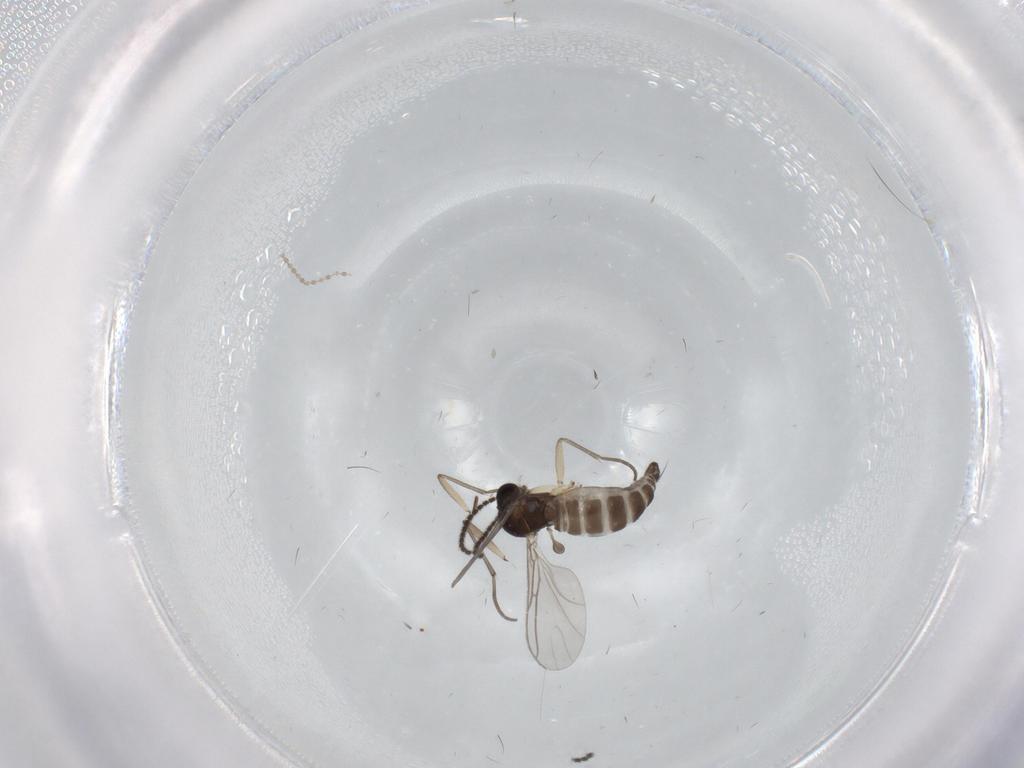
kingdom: Animalia
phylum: Arthropoda
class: Insecta
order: Diptera
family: Sciaridae
